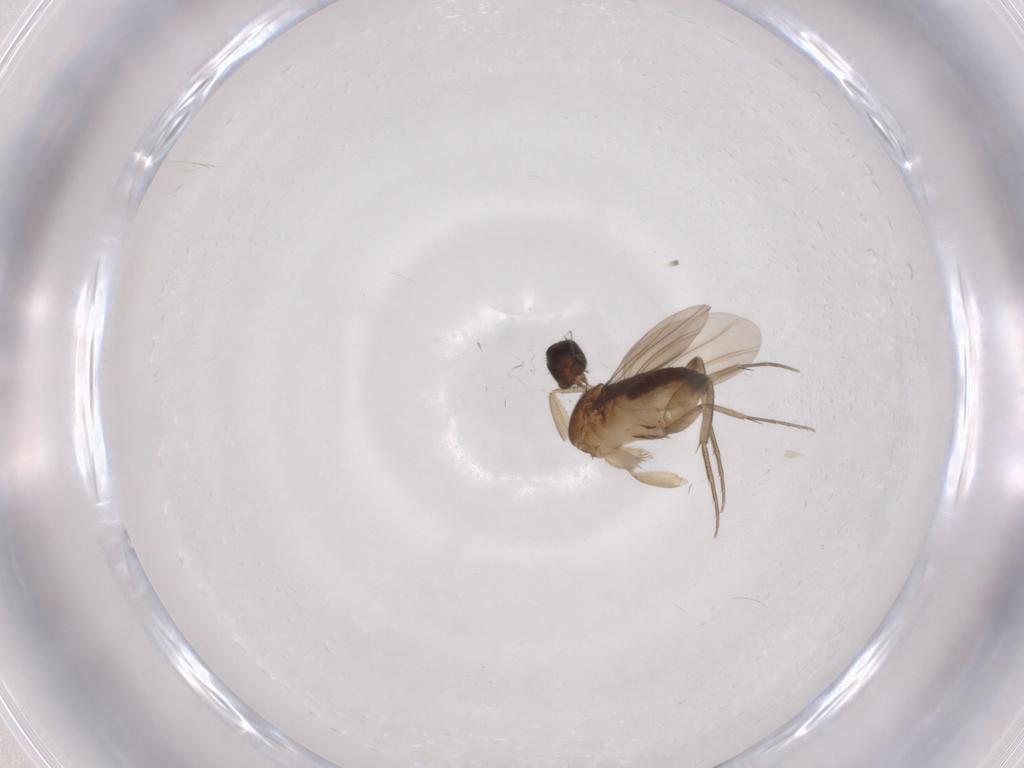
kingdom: Animalia
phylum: Arthropoda
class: Insecta
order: Diptera
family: Phoridae
